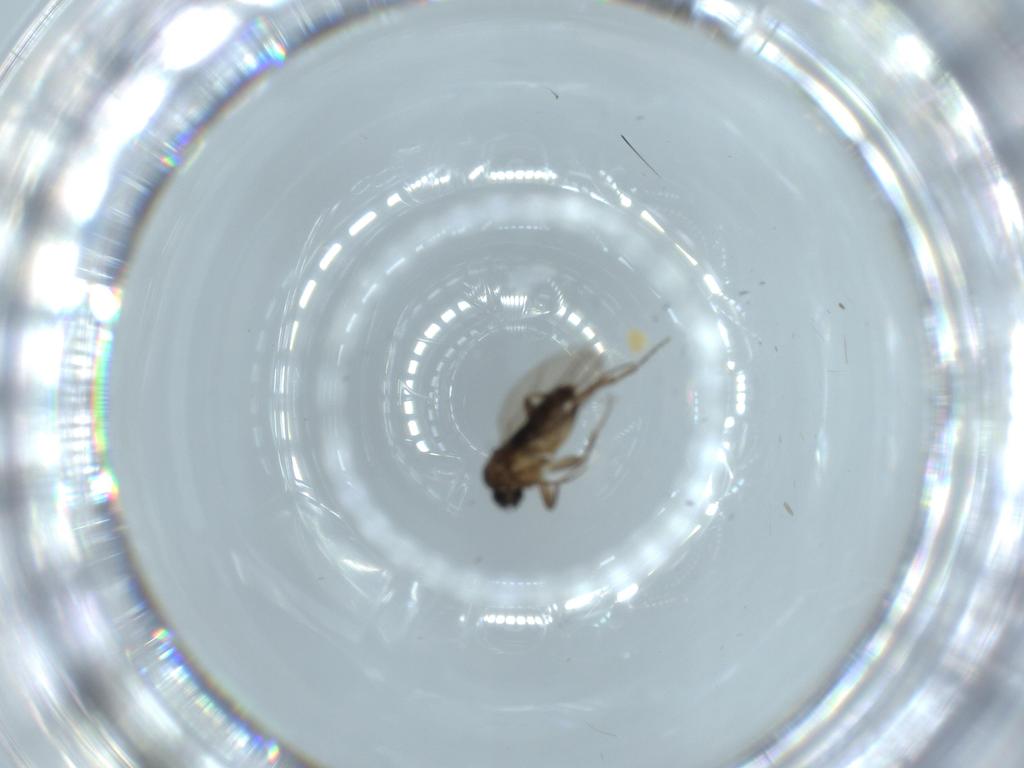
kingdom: Animalia
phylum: Arthropoda
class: Insecta
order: Diptera
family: Phoridae
